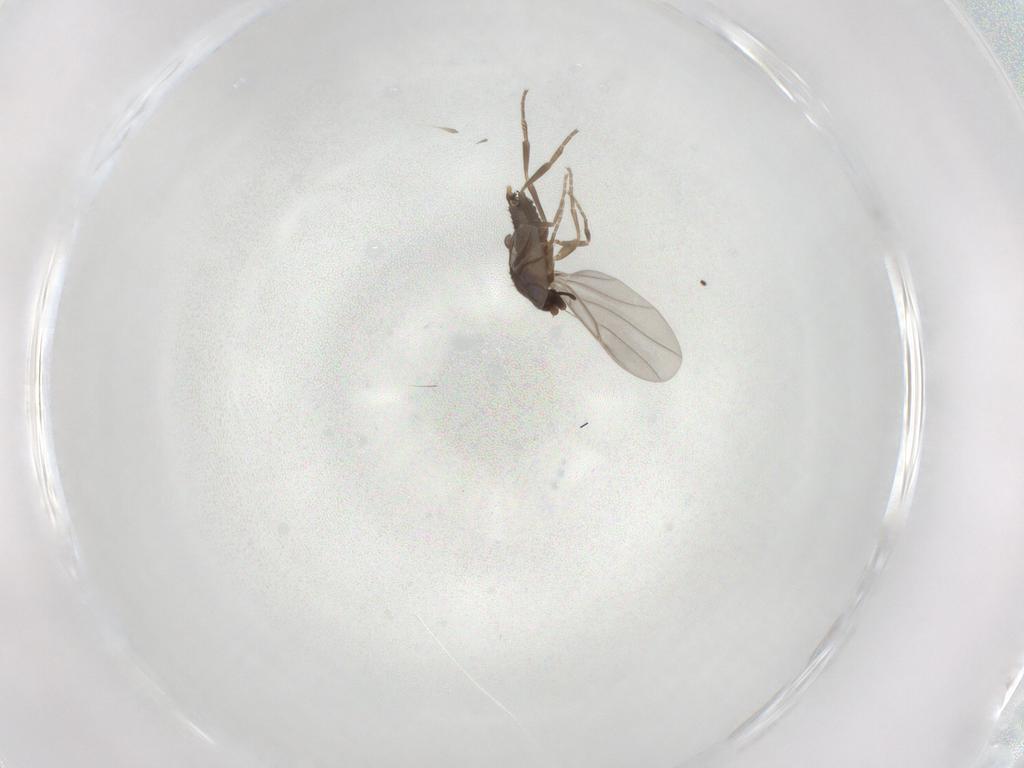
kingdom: Animalia
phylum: Arthropoda
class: Insecta
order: Diptera
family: Phoridae
